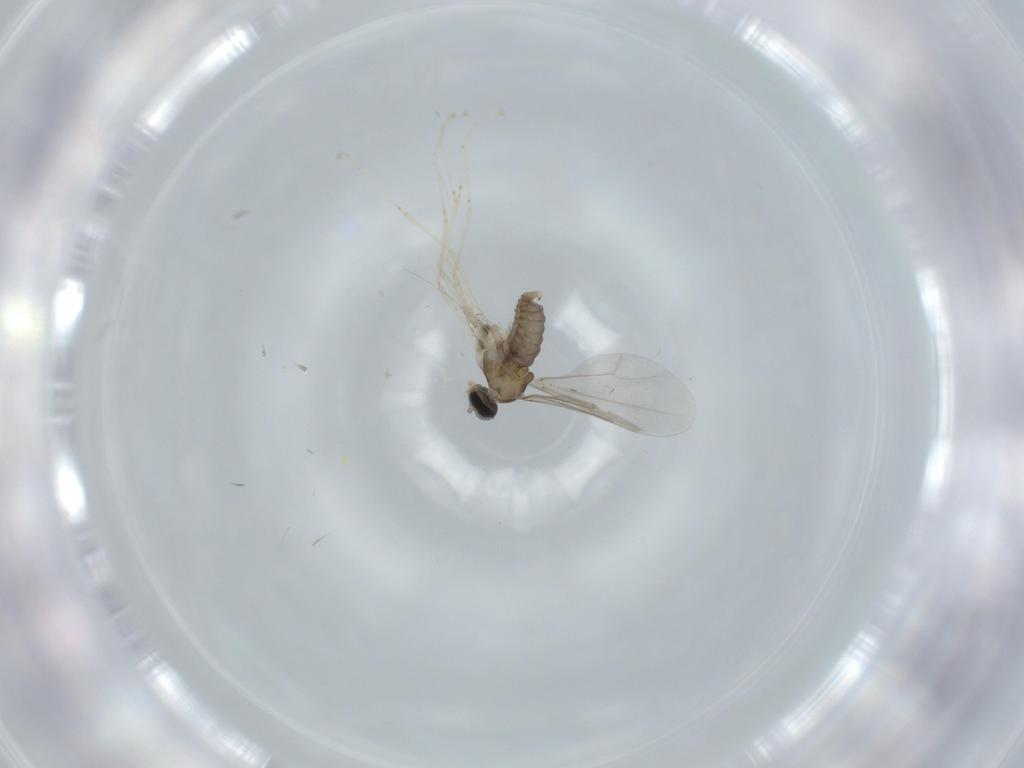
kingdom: Animalia
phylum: Arthropoda
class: Insecta
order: Diptera
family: Ceratopogonidae
